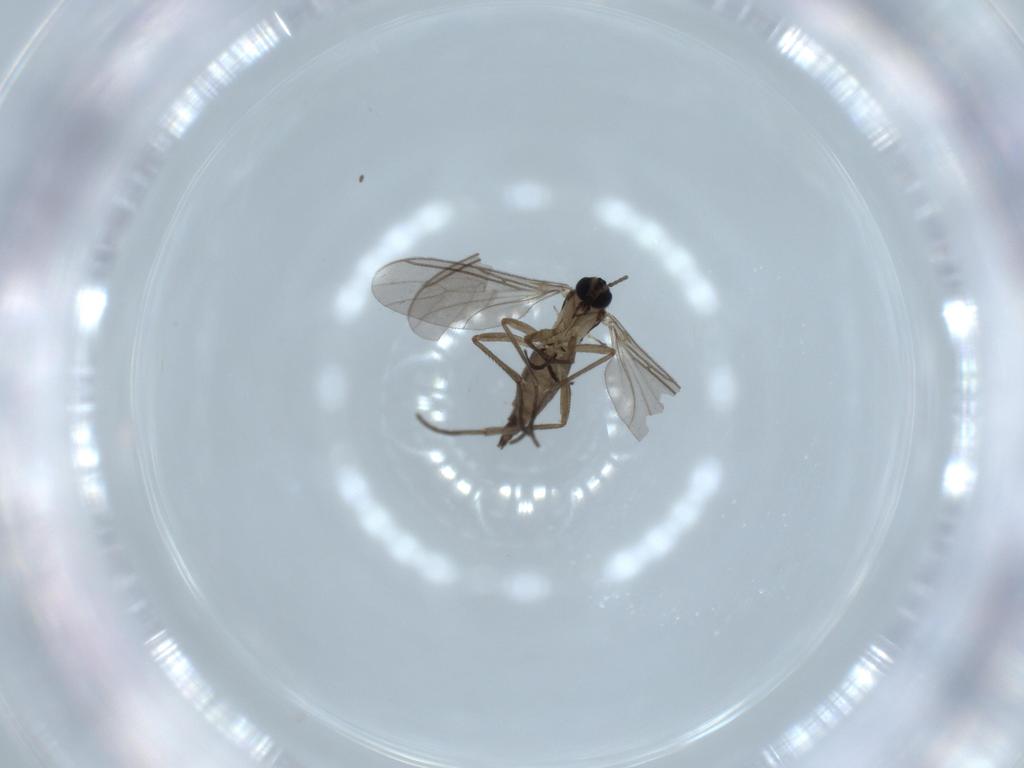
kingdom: Animalia
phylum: Arthropoda
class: Insecta
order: Diptera
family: Sciaridae
